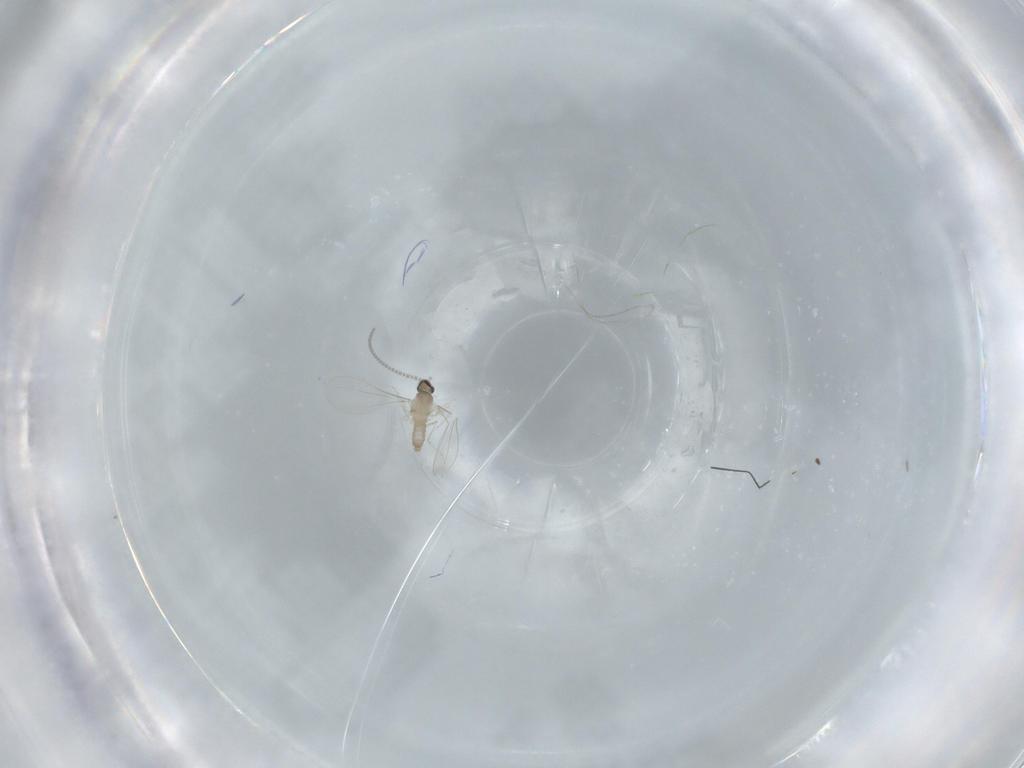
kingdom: Animalia
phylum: Arthropoda
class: Insecta
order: Diptera
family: Cecidomyiidae
